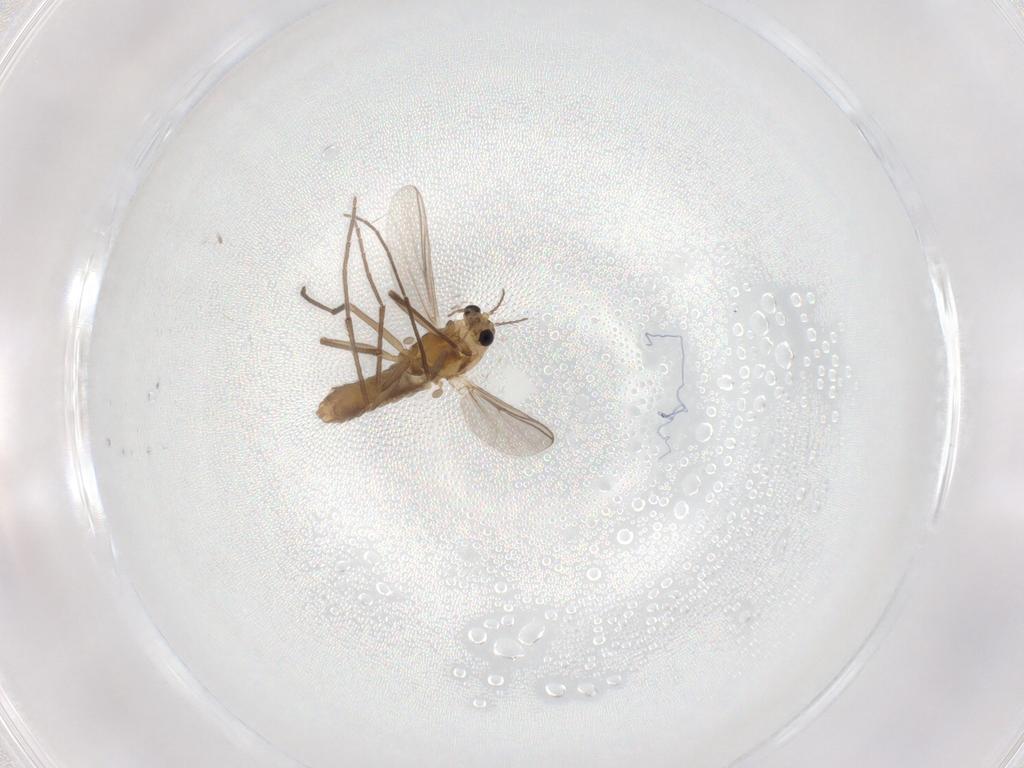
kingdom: Animalia
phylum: Arthropoda
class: Insecta
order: Diptera
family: Chironomidae
